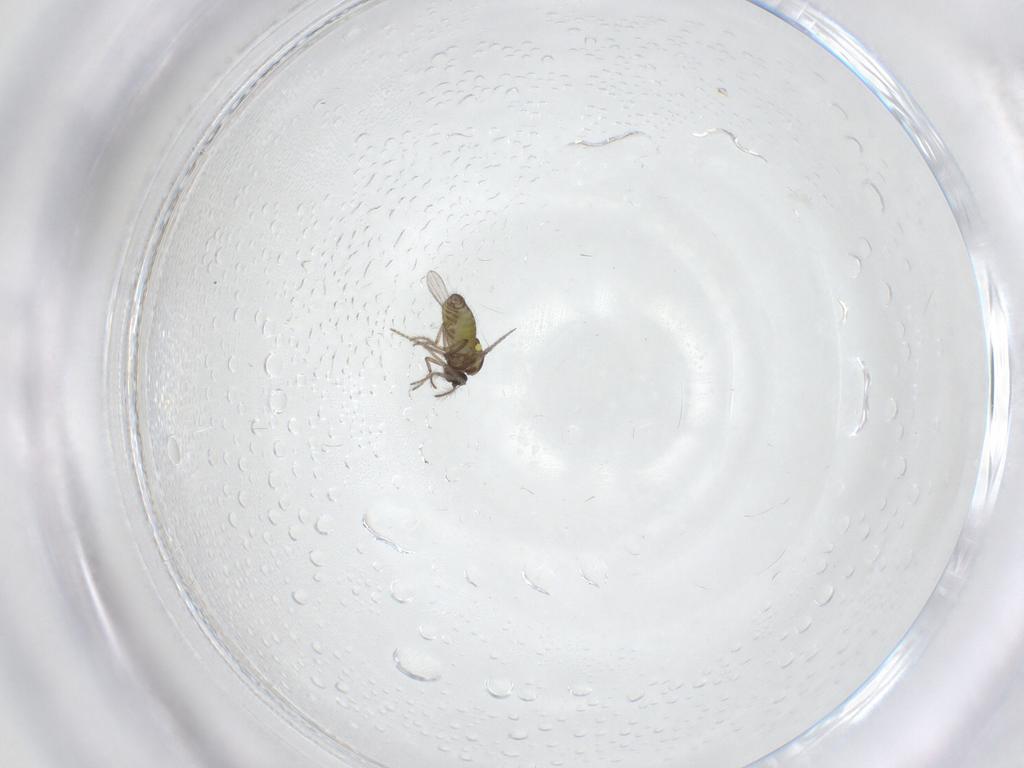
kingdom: Animalia
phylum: Arthropoda
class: Insecta
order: Diptera
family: Ceratopogonidae
